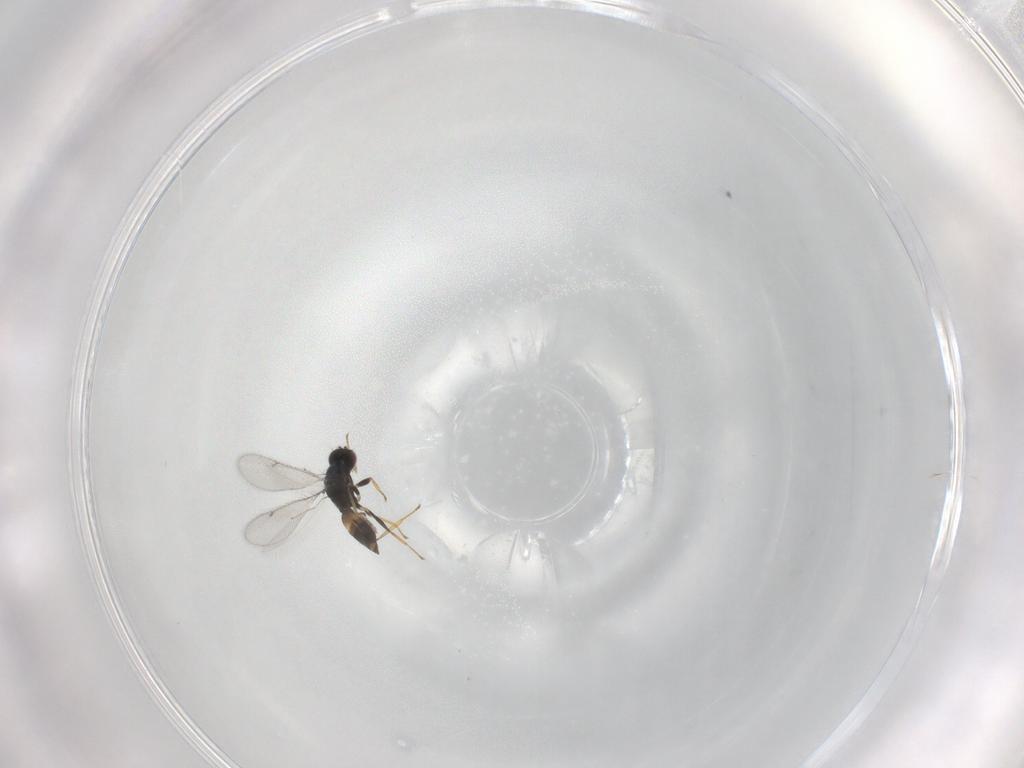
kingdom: Animalia
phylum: Arthropoda
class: Insecta
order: Hymenoptera
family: Eulophidae
